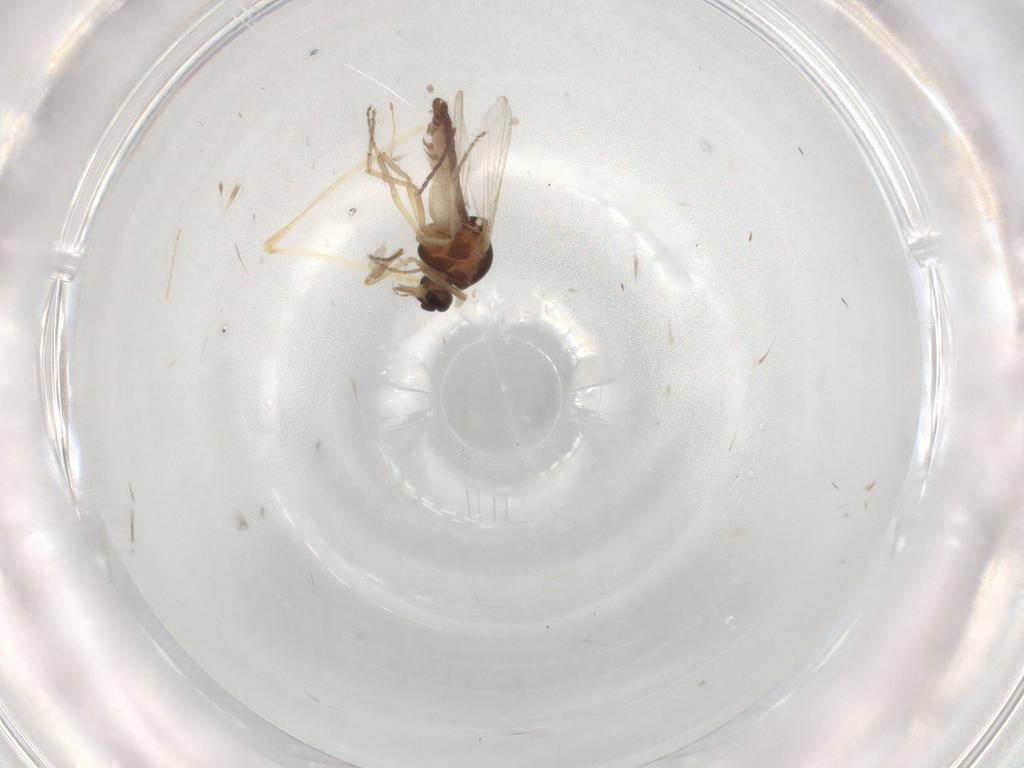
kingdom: Animalia
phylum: Arthropoda
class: Insecta
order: Diptera
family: Ceratopogonidae
